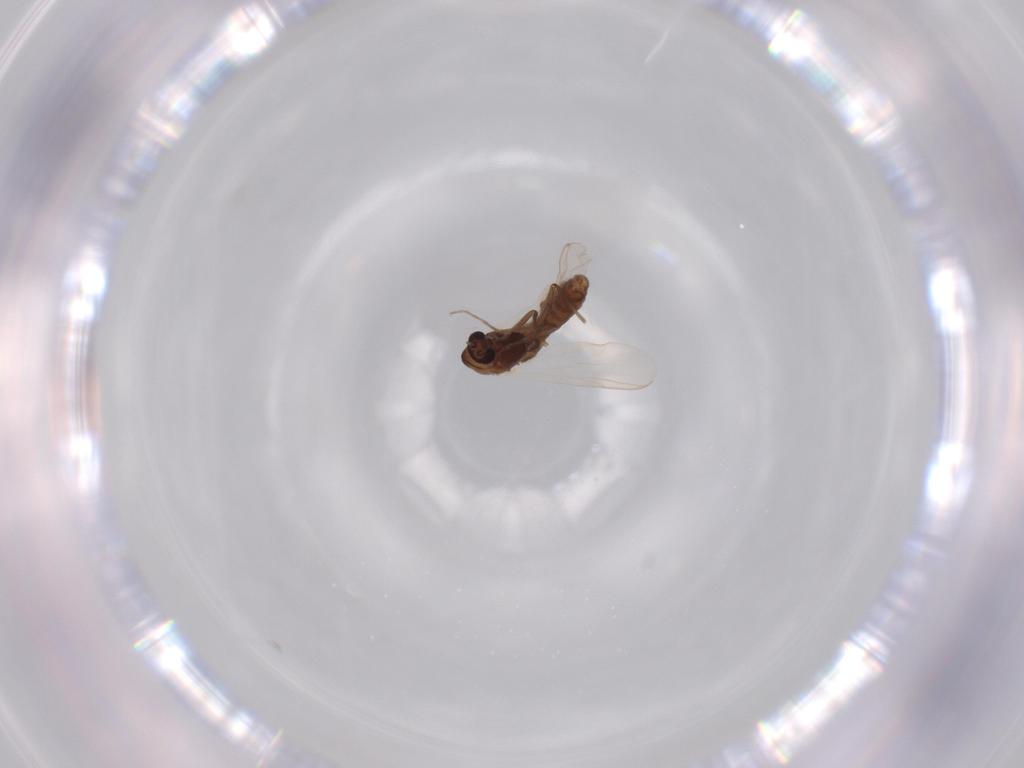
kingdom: Animalia
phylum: Arthropoda
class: Insecta
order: Diptera
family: Chironomidae
